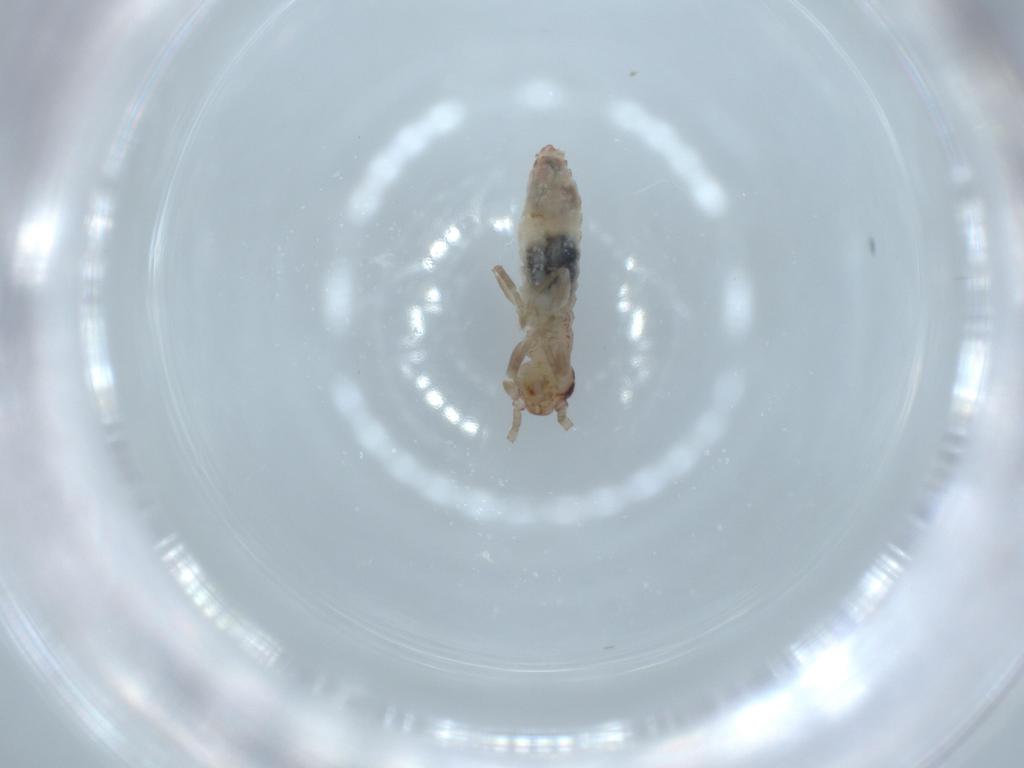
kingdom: Animalia
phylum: Arthropoda
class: Insecta
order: Orthoptera
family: Mogoplistidae
